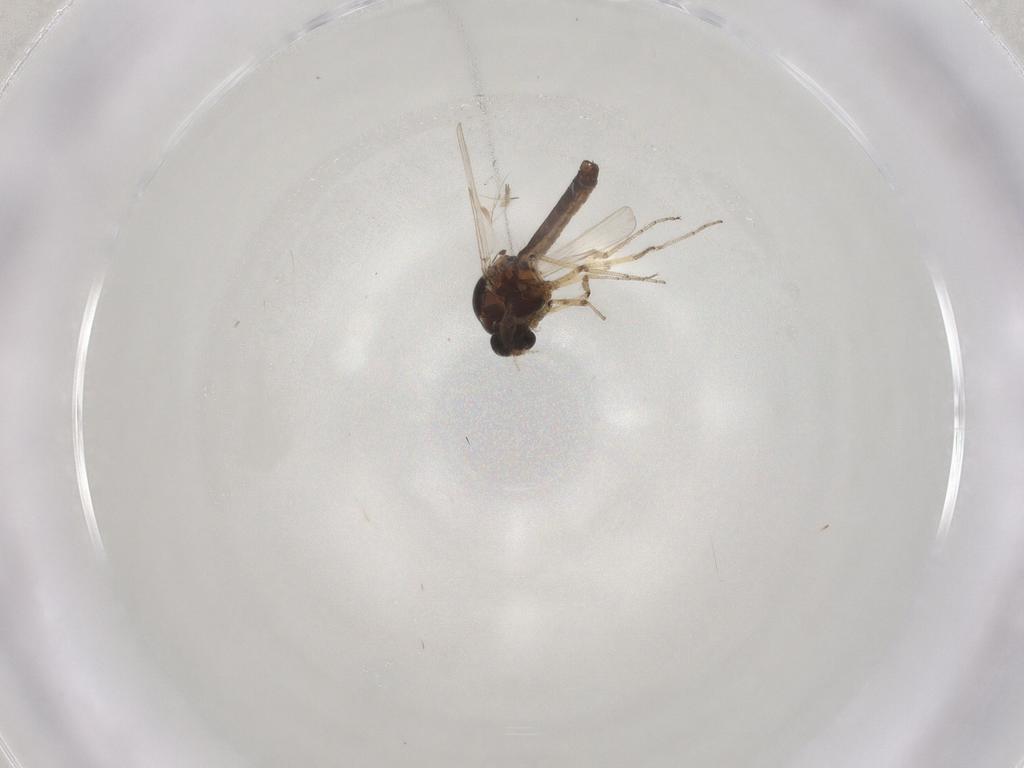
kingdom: Animalia
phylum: Arthropoda
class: Insecta
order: Diptera
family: Ceratopogonidae
